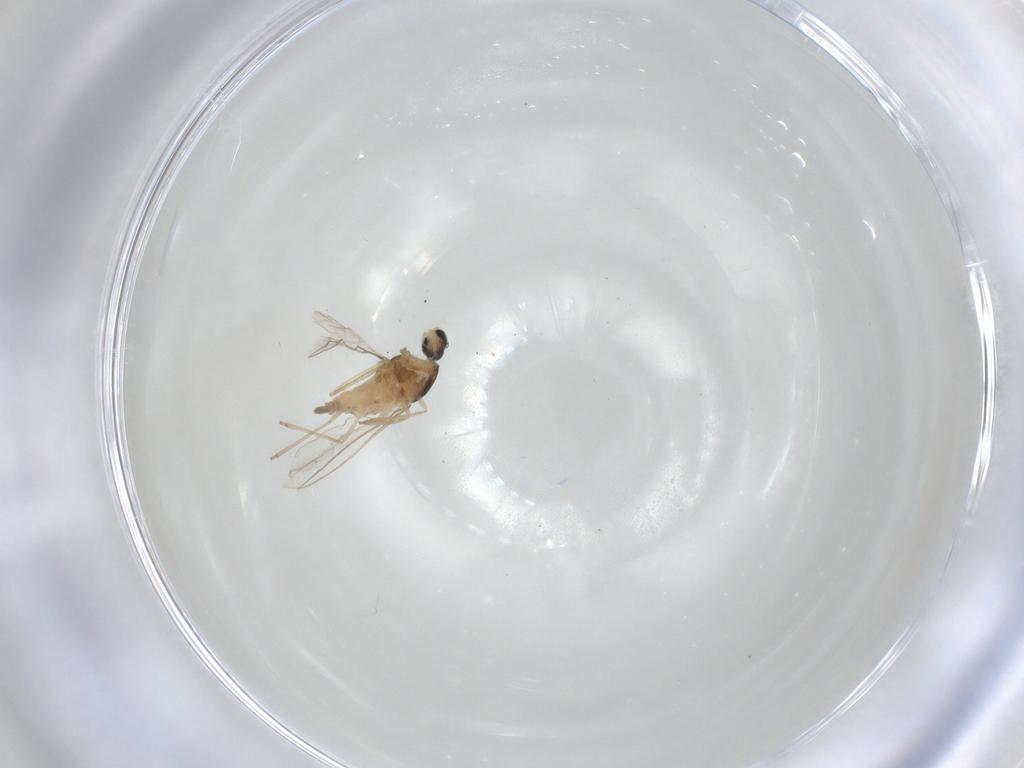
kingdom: Animalia
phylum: Arthropoda
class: Insecta
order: Diptera
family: Cecidomyiidae
